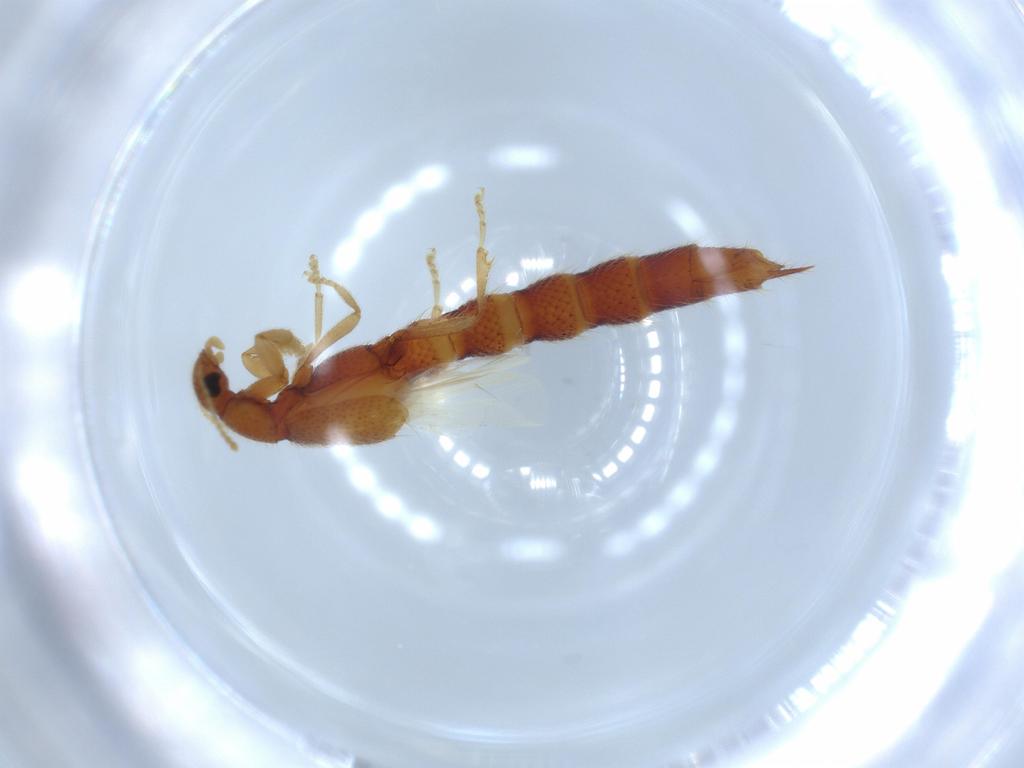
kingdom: Animalia
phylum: Arthropoda
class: Insecta
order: Coleoptera
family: Staphylinidae
